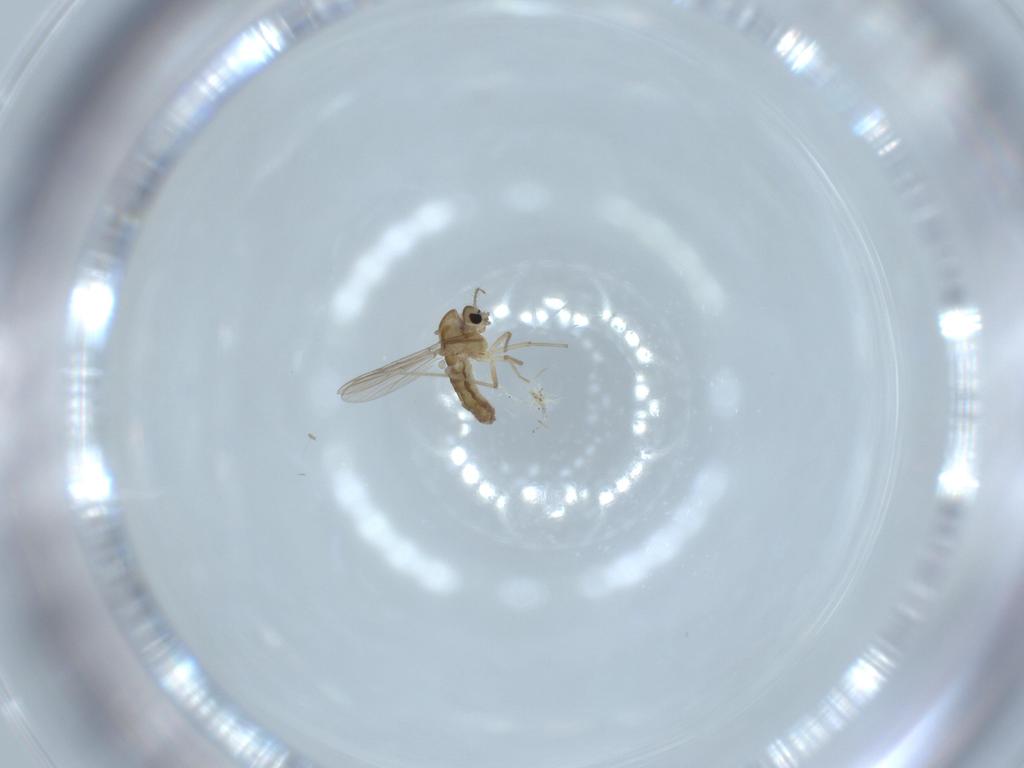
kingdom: Animalia
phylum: Arthropoda
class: Insecta
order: Diptera
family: Chironomidae
